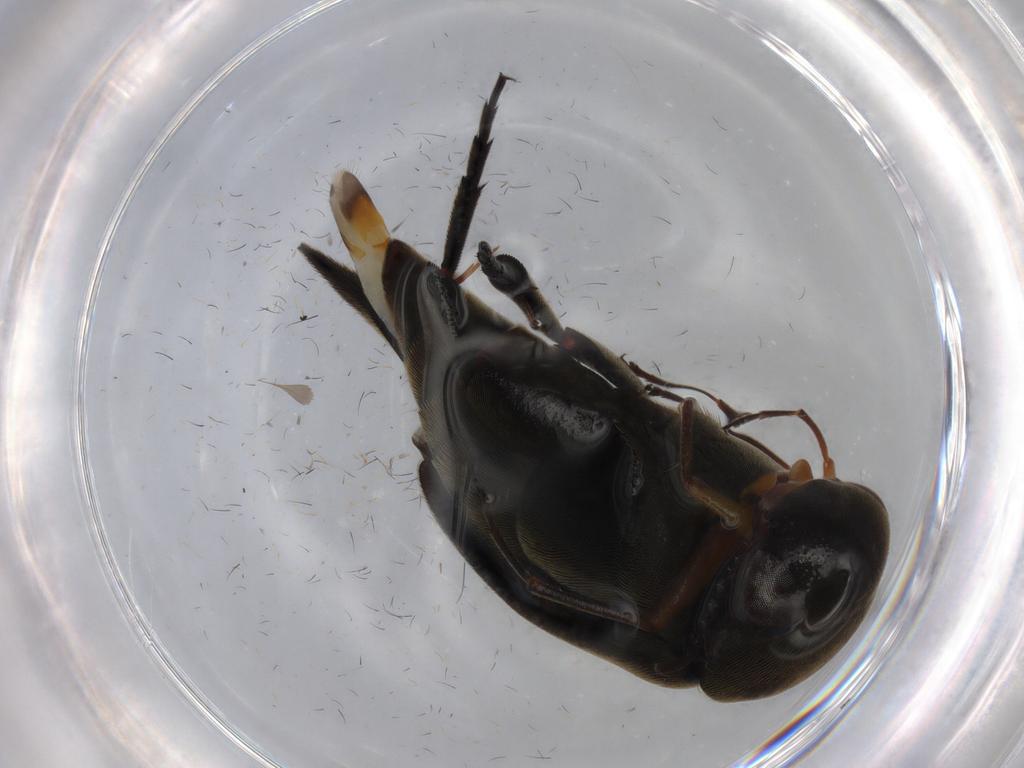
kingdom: Animalia
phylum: Arthropoda
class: Insecta
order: Coleoptera
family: Mordellidae
